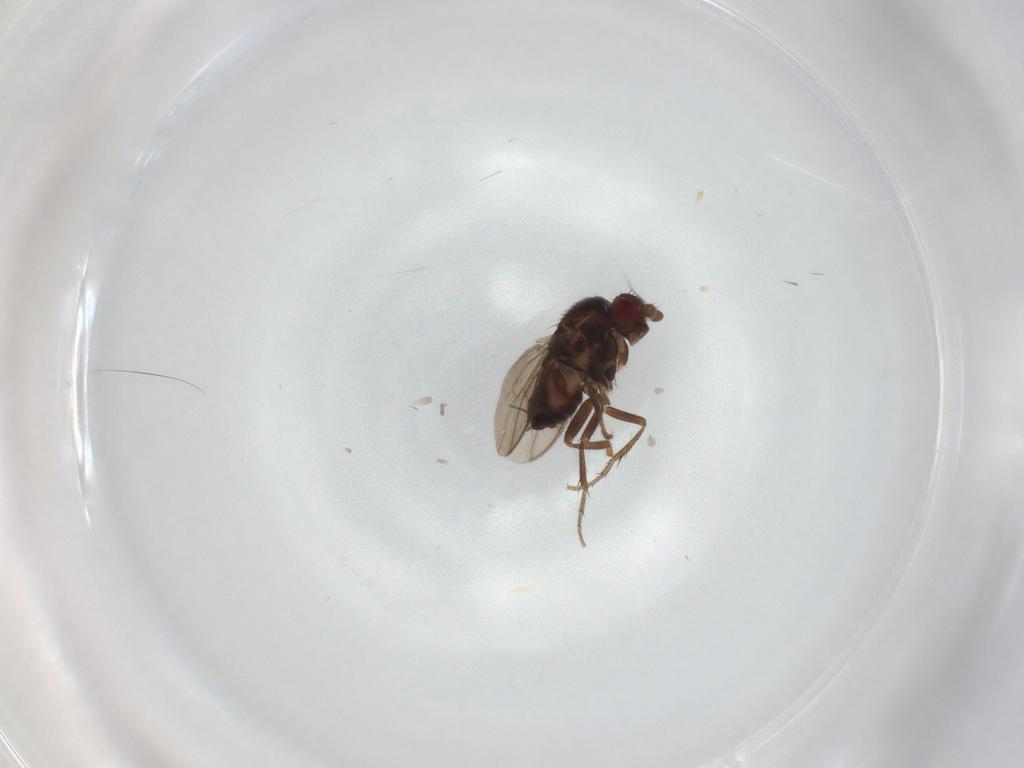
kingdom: Animalia
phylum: Arthropoda
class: Insecta
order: Diptera
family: Sphaeroceridae
